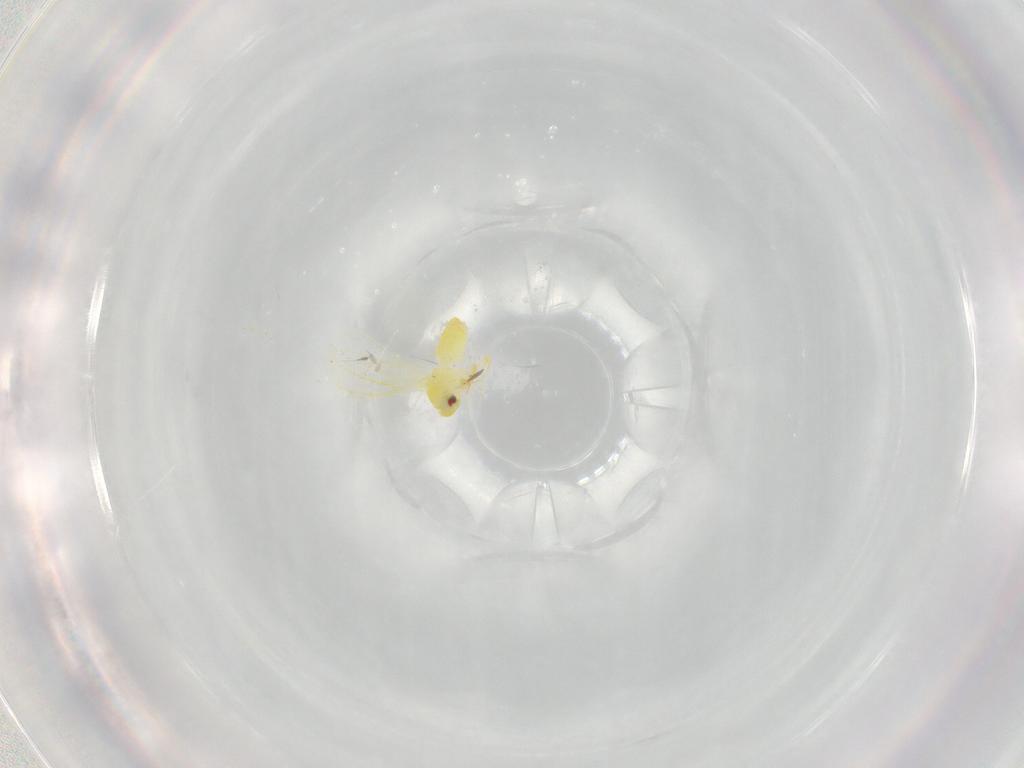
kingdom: Animalia
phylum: Arthropoda
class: Insecta
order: Hemiptera
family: Aleyrodidae
